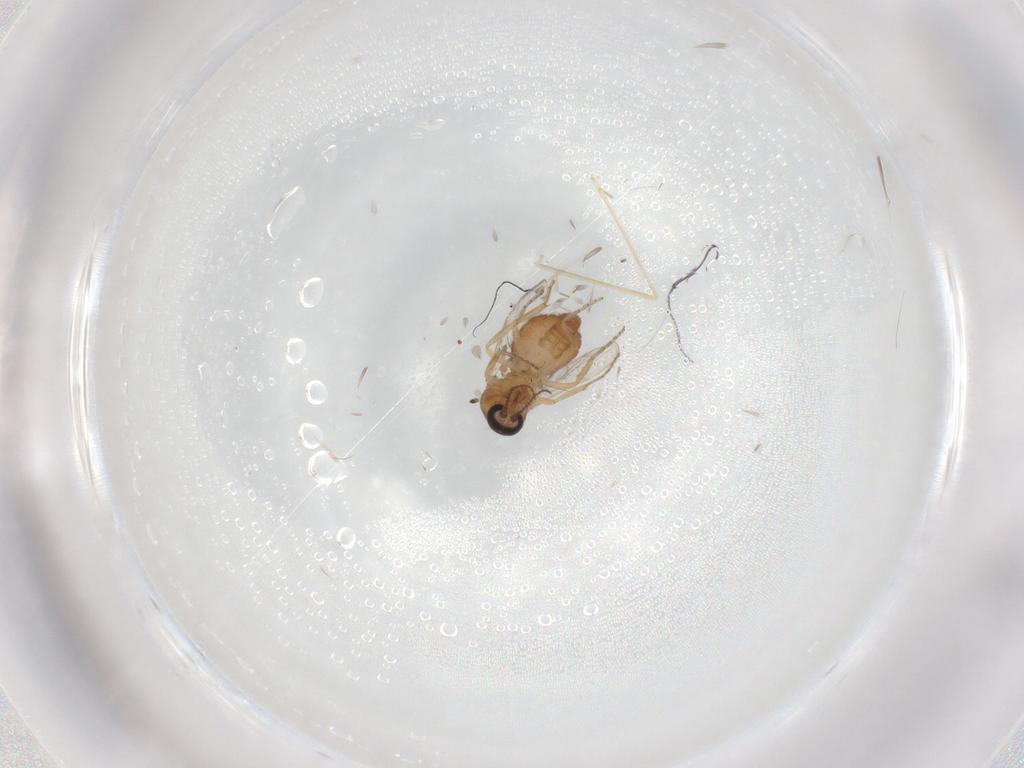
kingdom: Animalia
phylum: Arthropoda
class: Insecta
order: Diptera
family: Ceratopogonidae
